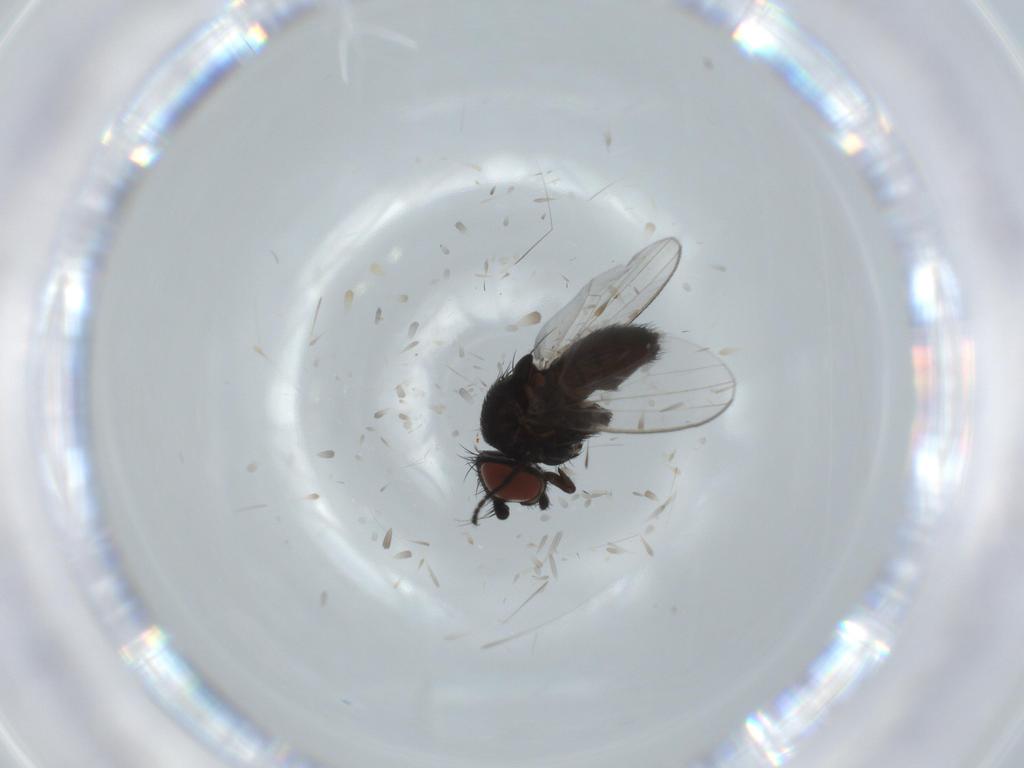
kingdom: Animalia
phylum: Arthropoda
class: Insecta
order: Diptera
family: Milichiidae
